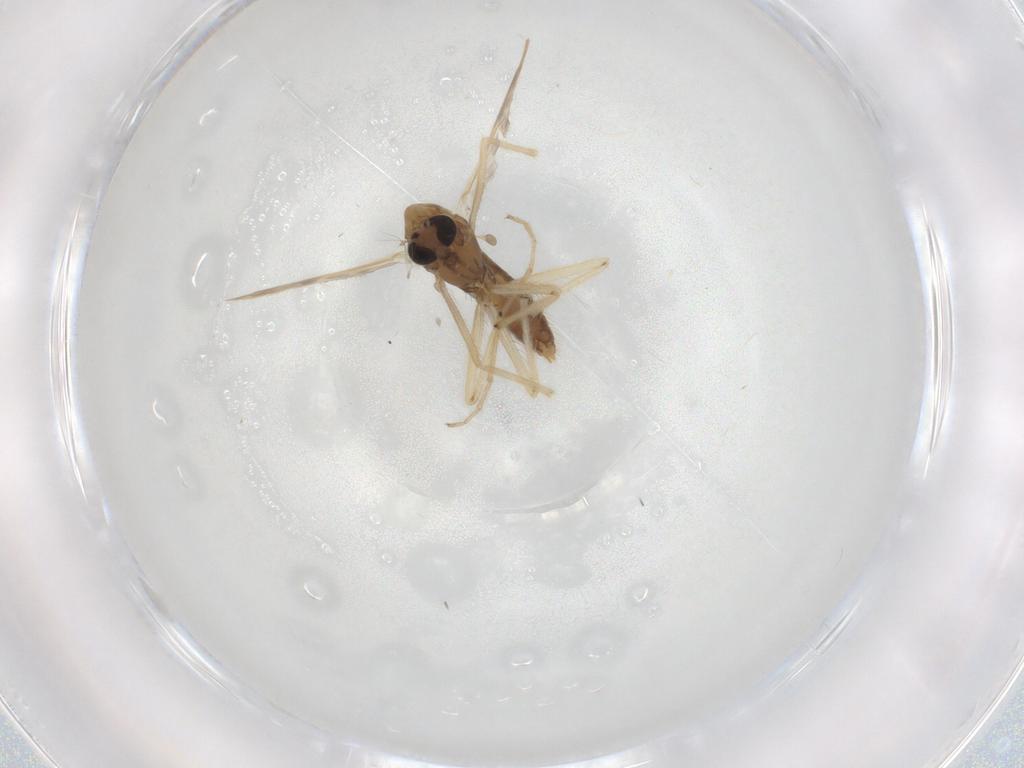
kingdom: Animalia
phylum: Arthropoda
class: Insecta
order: Diptera
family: Chironomidae
